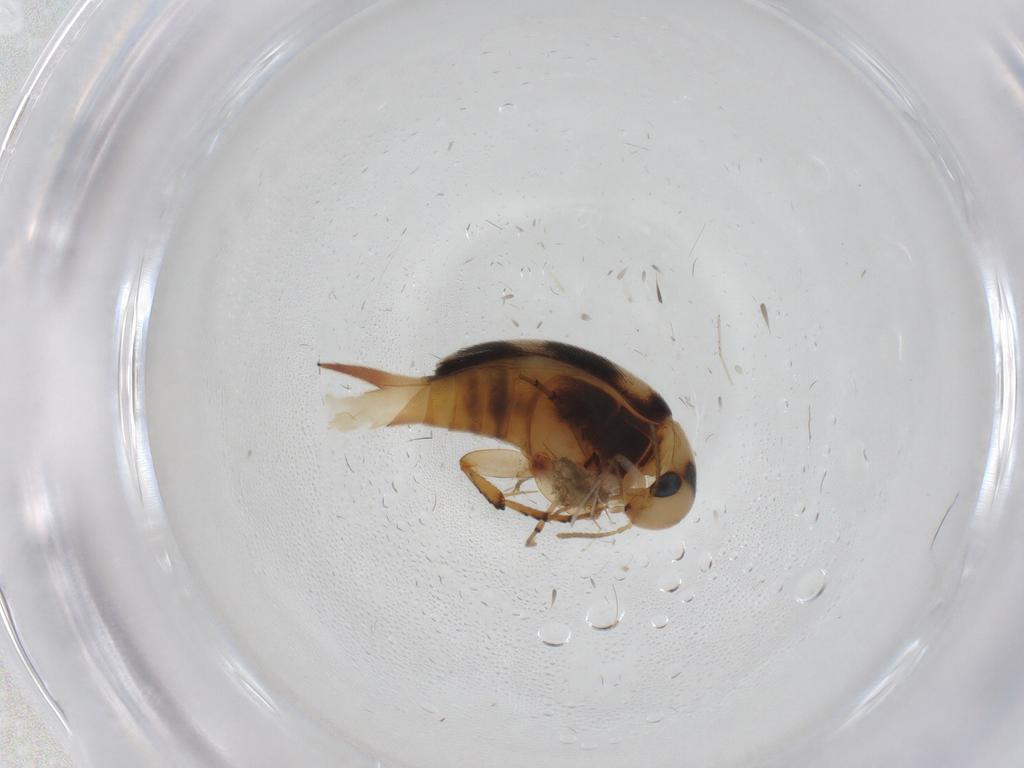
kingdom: Animalia
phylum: Arthropoda
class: Insecta
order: Coleoptera
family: Mordellidae
